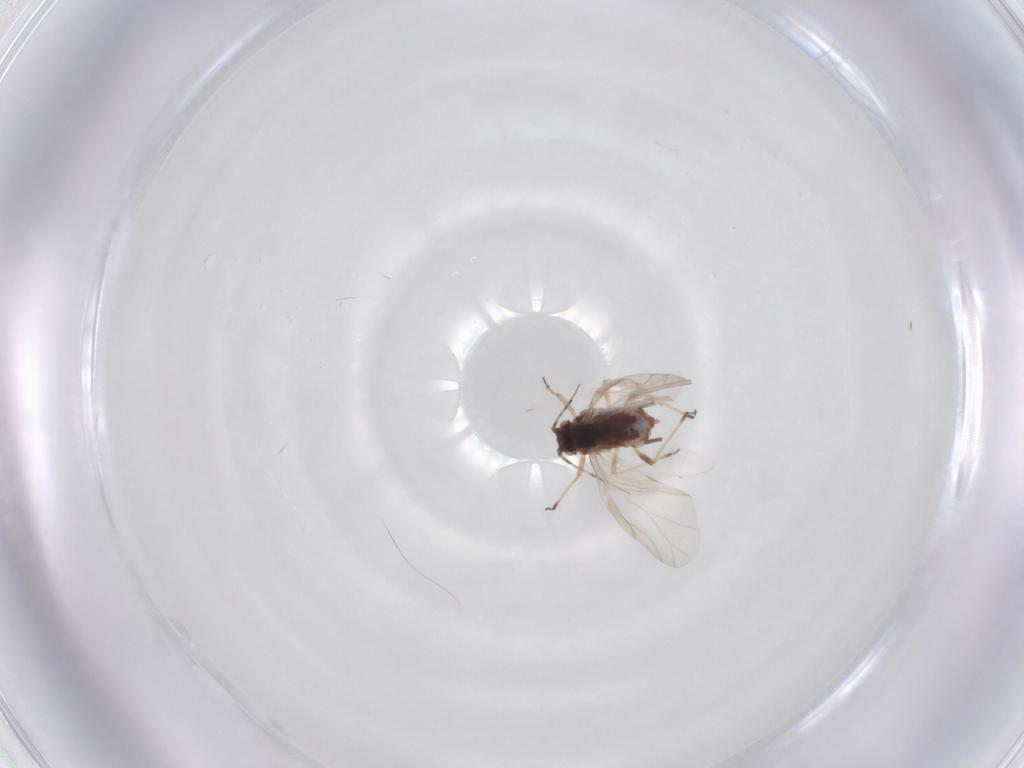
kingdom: Animalia
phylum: Arthropoda
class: Insecta
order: Hemiptera
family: Aphididae
